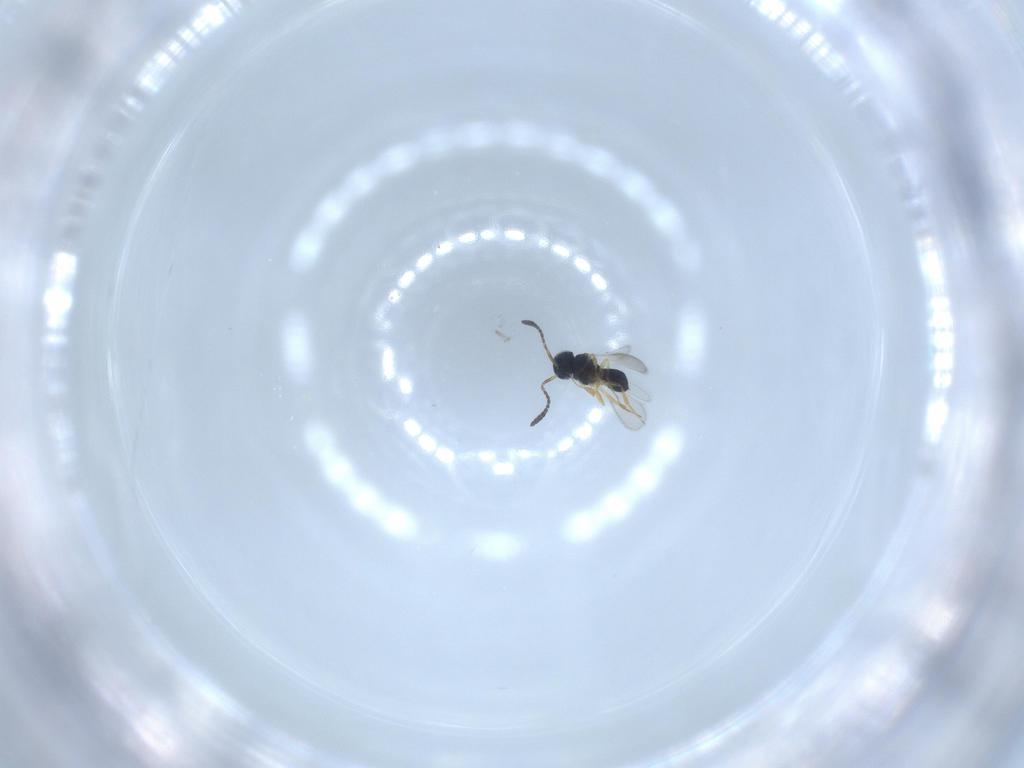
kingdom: Animalia
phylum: Arthropoda
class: Insecta
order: Hymenoptera
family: Scelionidae
